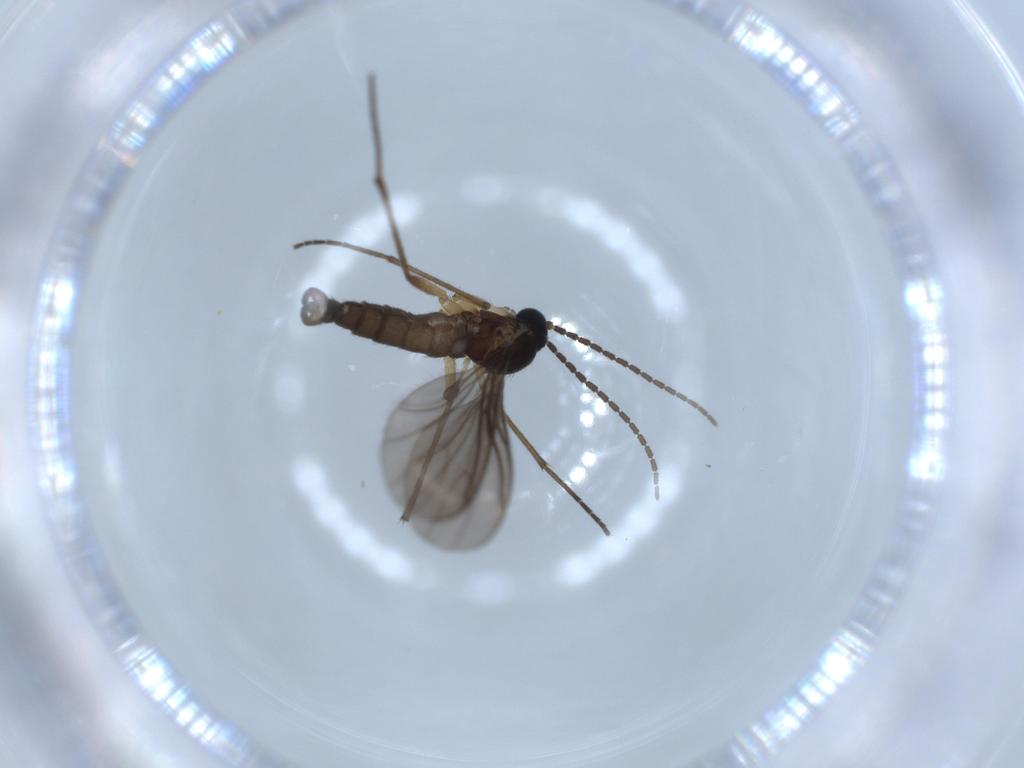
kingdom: Animalia
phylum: Arthropoda
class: Insecta
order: Diptera
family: Sciaridae
